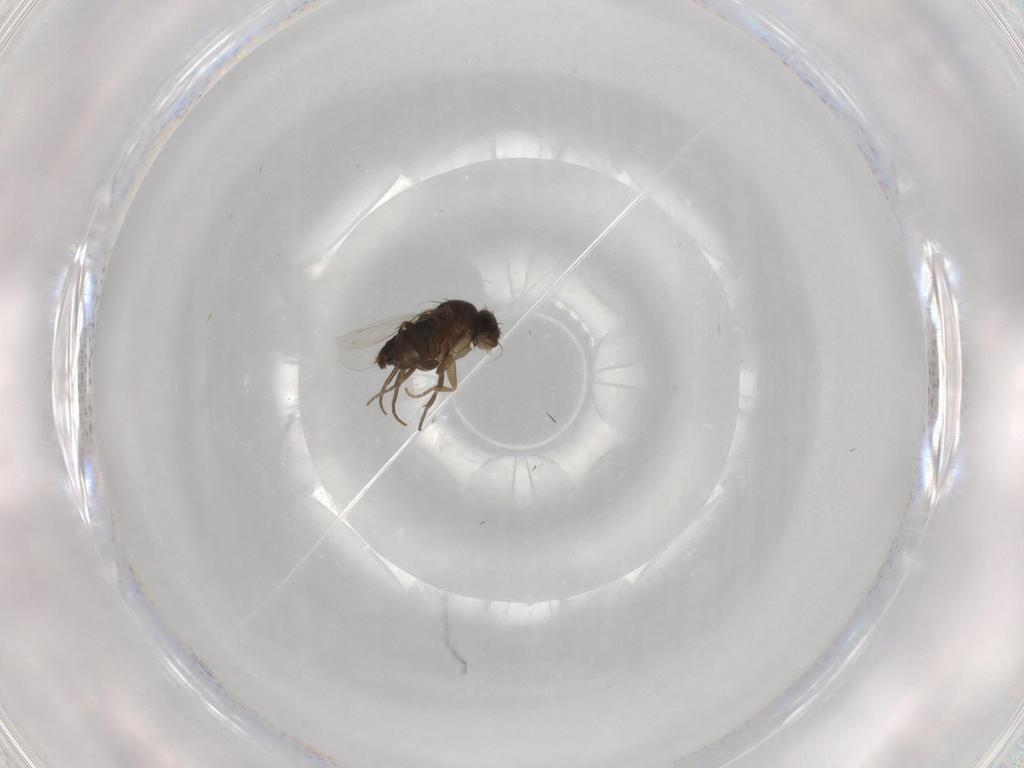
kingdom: Animalia
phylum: Arthropoda
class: Insecta
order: Diptera
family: Phoridae
